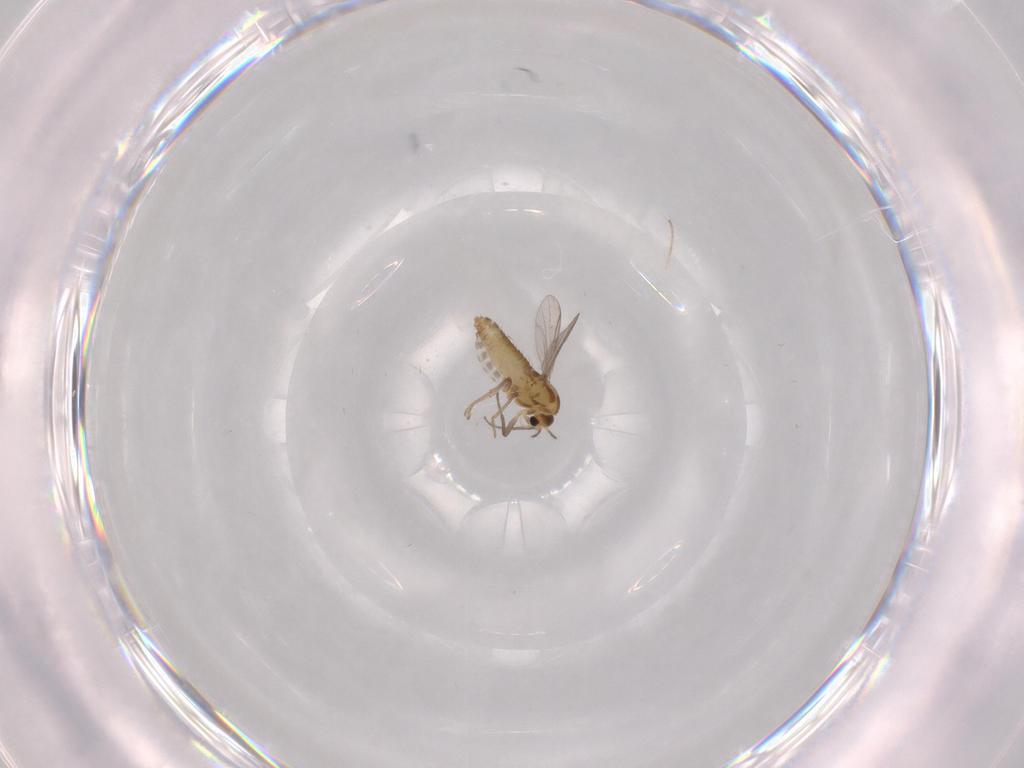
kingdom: Animalia
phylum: Arthropoda
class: Insecta
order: Diptera
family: Chironomidae
